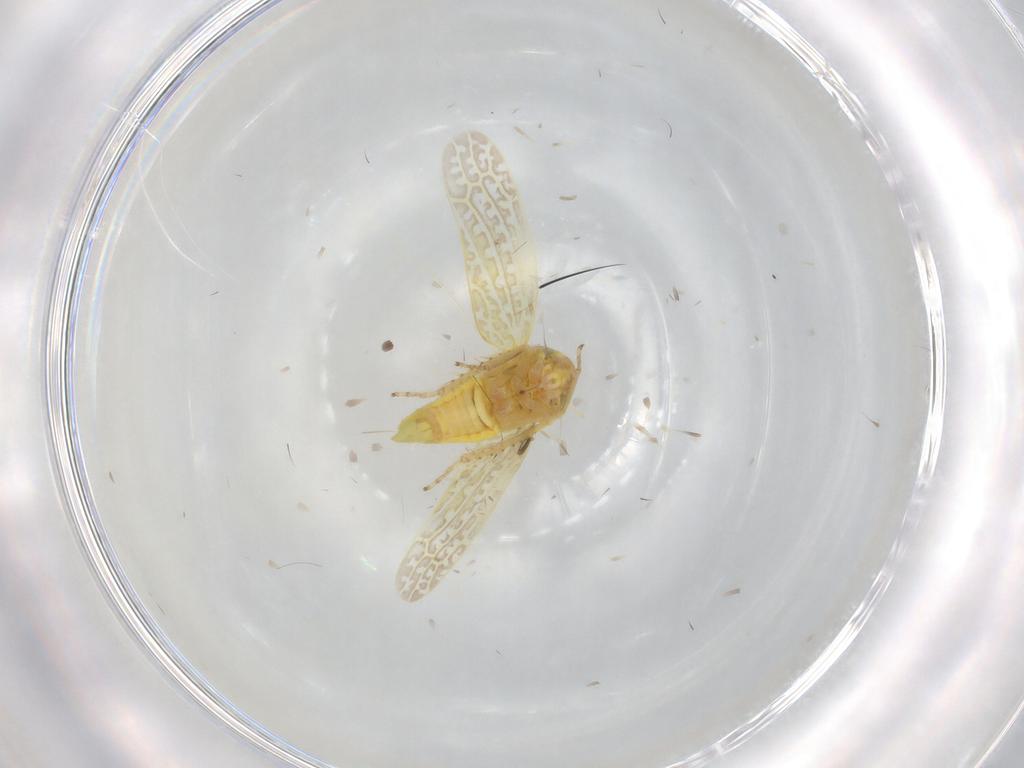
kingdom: Animalia
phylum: Arthropoda
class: Insecta
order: Hemiptera
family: Cicadellidae
